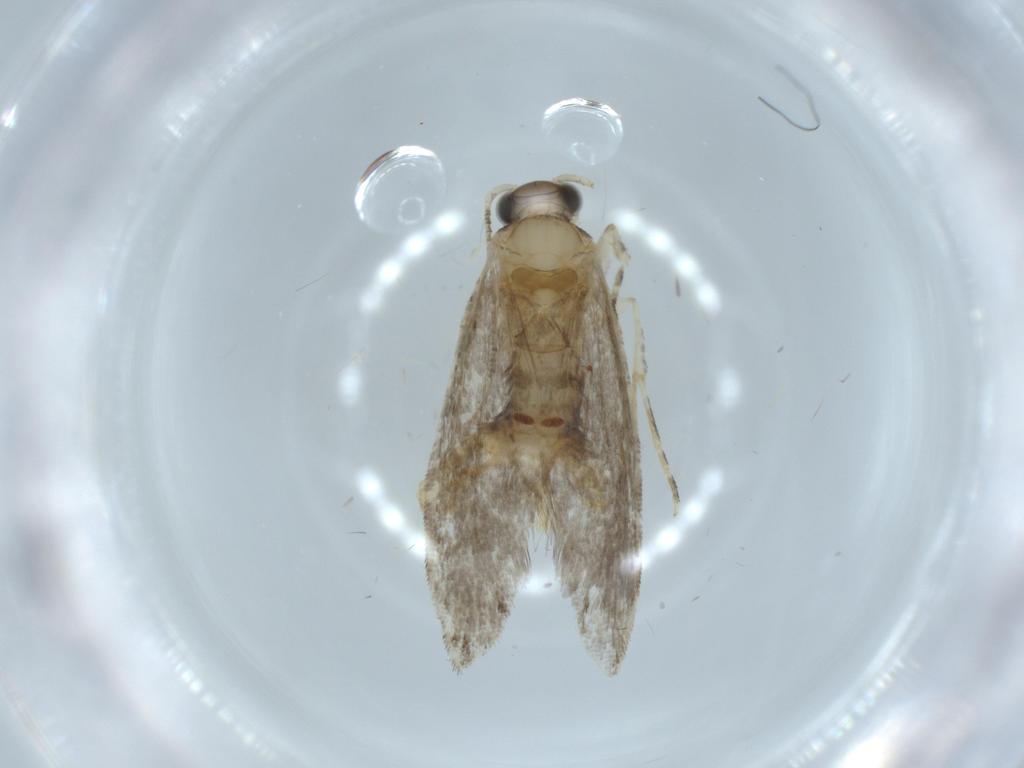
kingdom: Animalia
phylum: Arthropoda
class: Insecta
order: Lepidoptera
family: Tineidae
